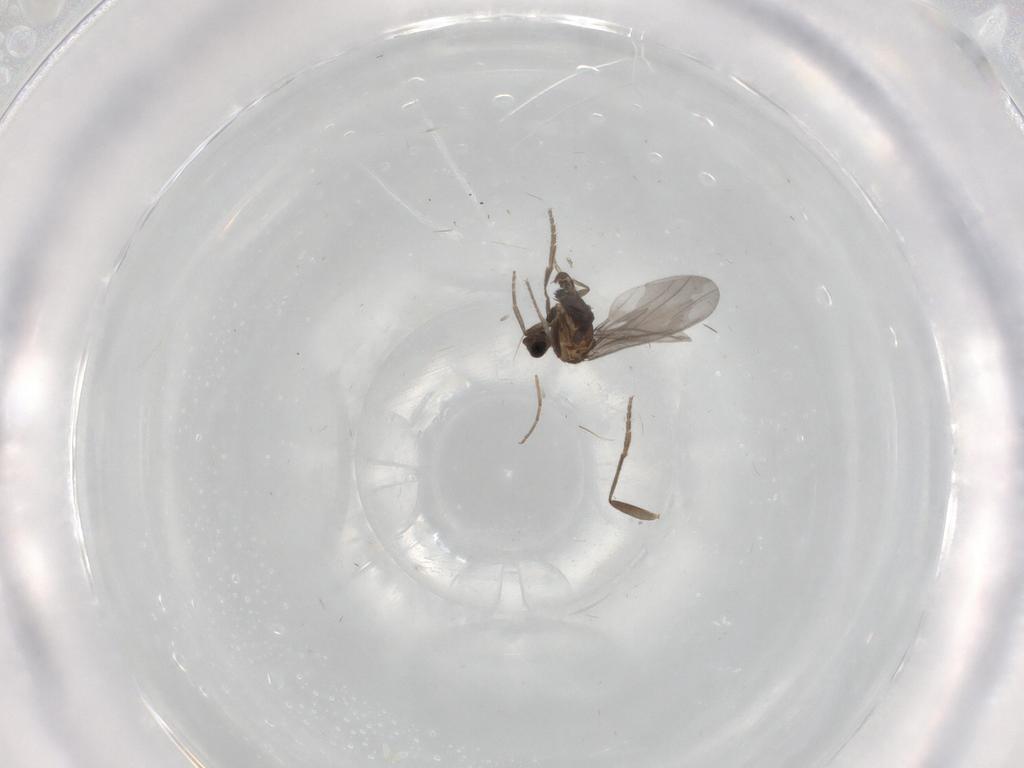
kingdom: Animalia
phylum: Arthropoda
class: Insecta
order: Diptera
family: Phoridae
